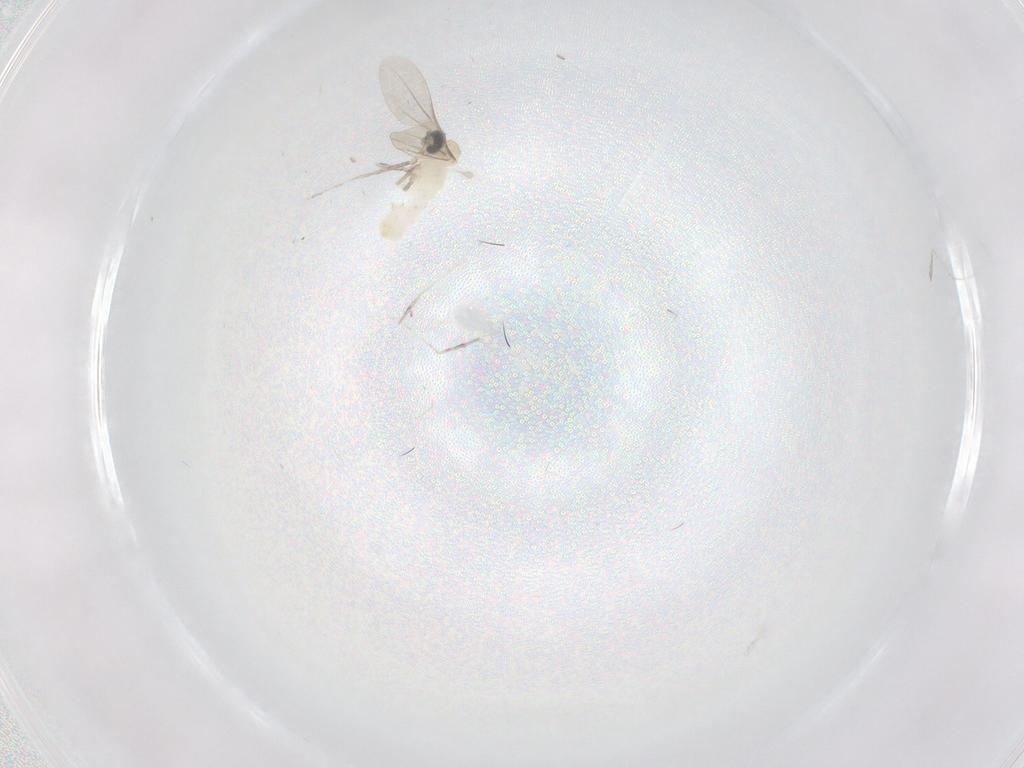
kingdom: Animalia
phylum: Arthropoda
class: Insecta
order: Diptera
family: Cecidomyiidae
